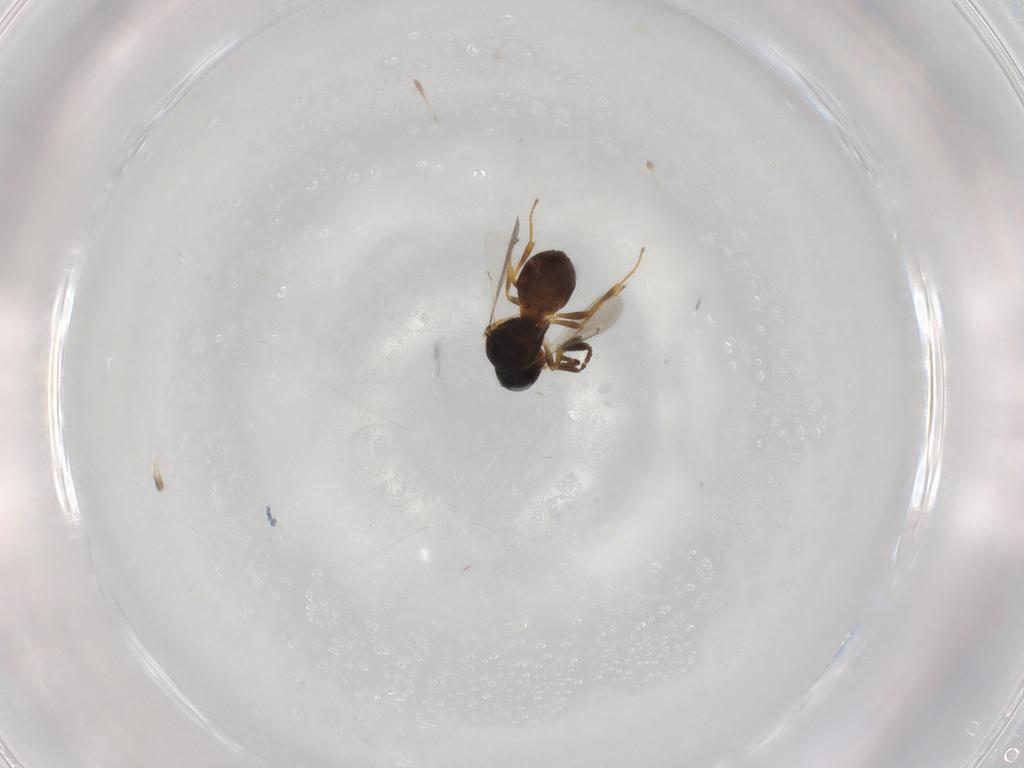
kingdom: Animalia
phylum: Arthropoda
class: Insecta
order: Hymenoptera
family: Scelionidae
